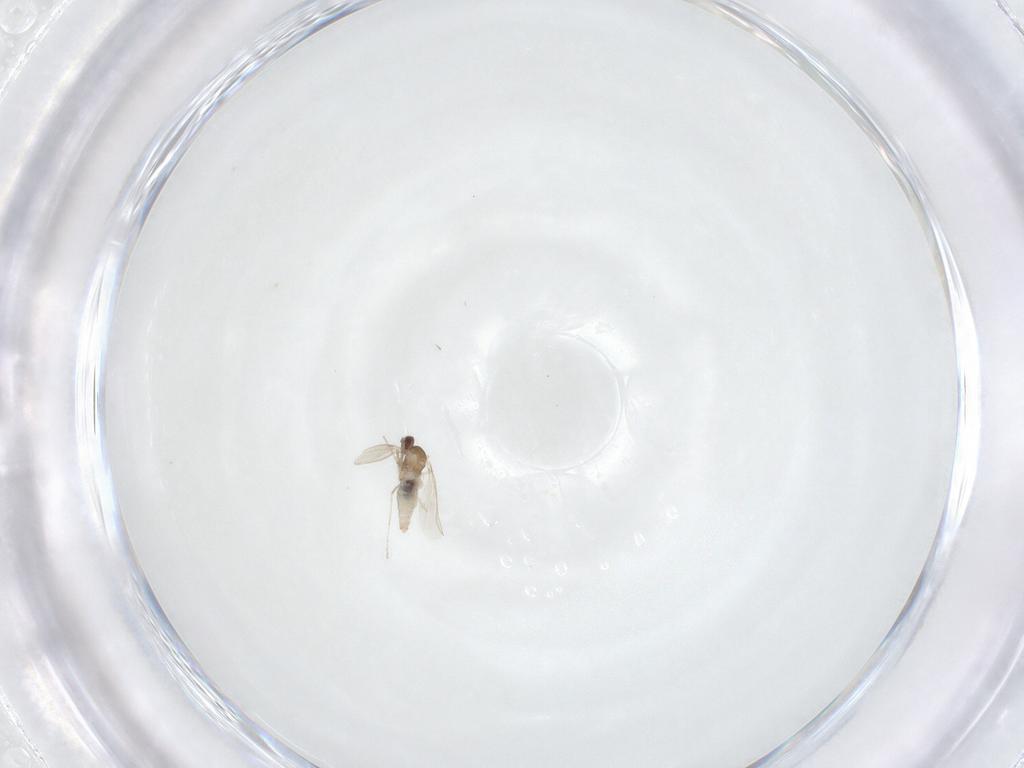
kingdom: Animalia
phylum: Arthropoda
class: Insecta
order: Diptera
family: Cecidomyiidae
